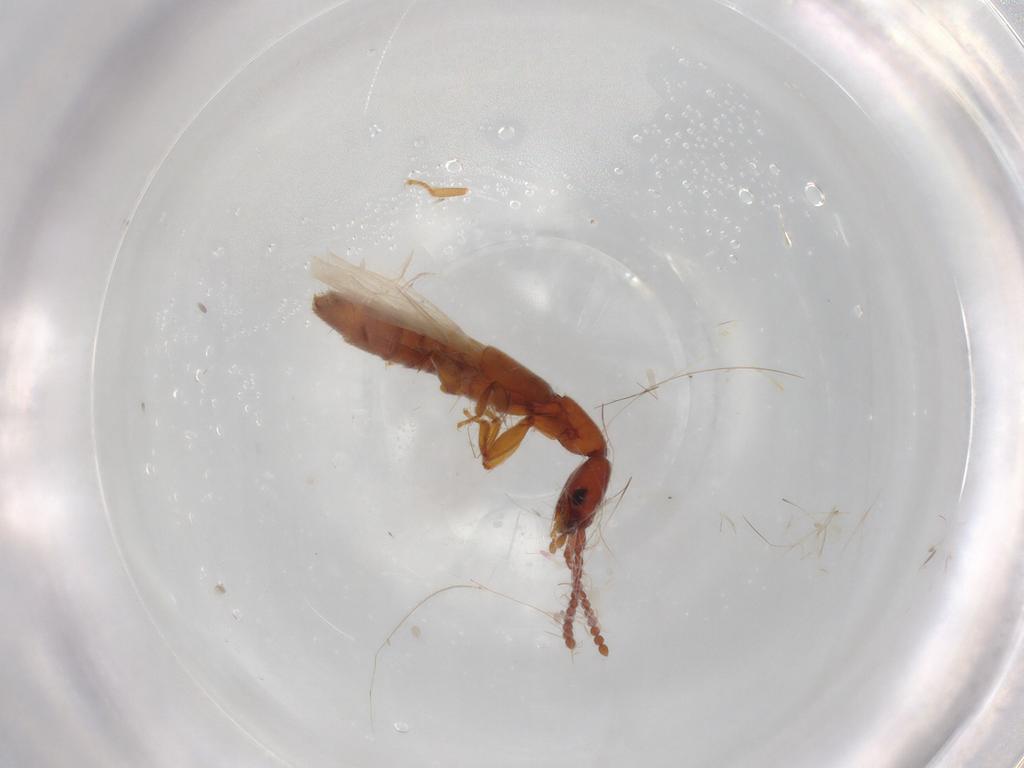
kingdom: Animalia
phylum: Arthropoda
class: Insecta
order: Coleoptera
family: Staphylinidae
